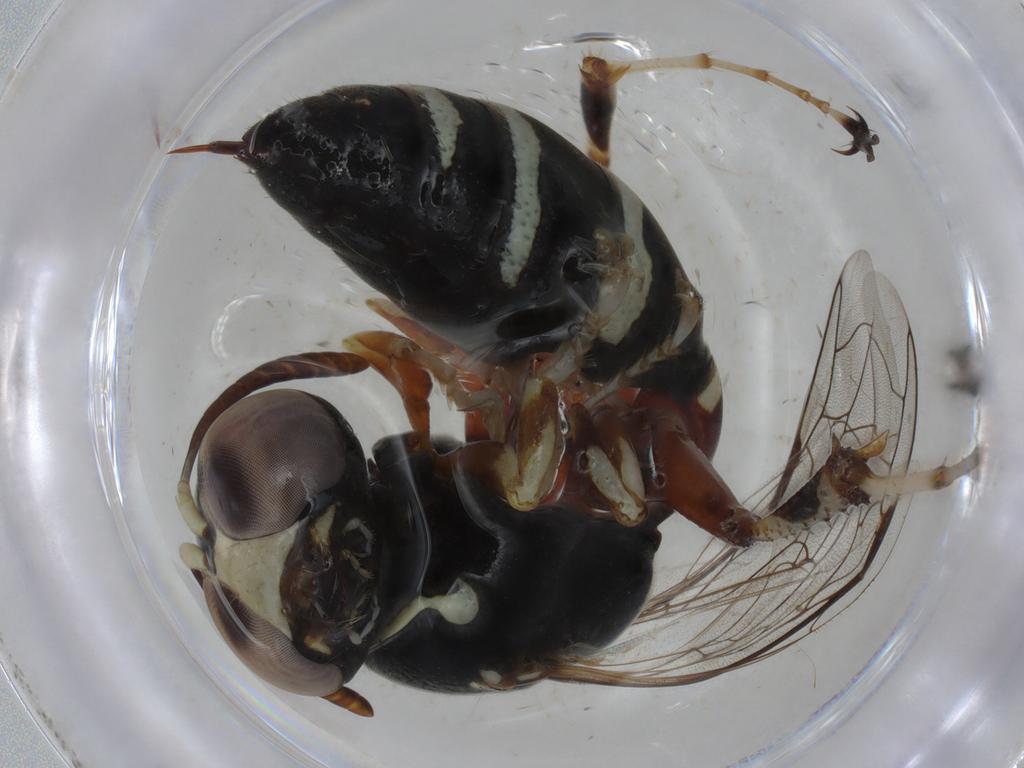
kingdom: Animalia
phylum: Arthropoda
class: Insecta
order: Hymenoptera
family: Bembicidae
